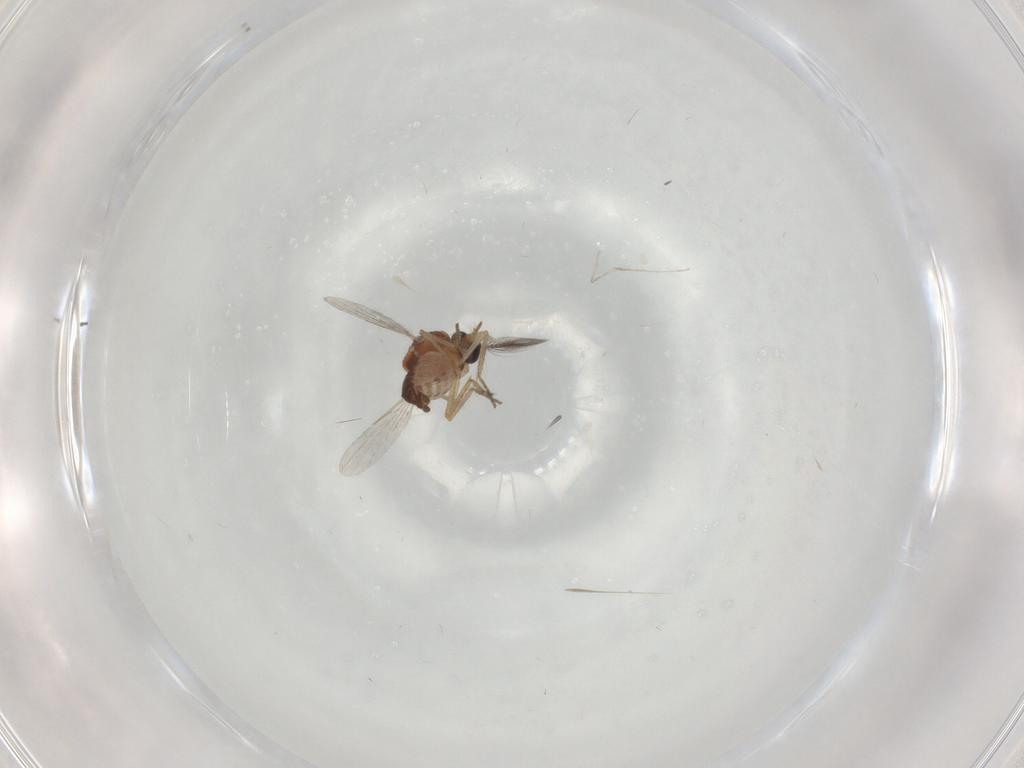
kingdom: Animalia
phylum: Arthropoda
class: Insecta
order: Diptera
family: Ceratopogonidae
